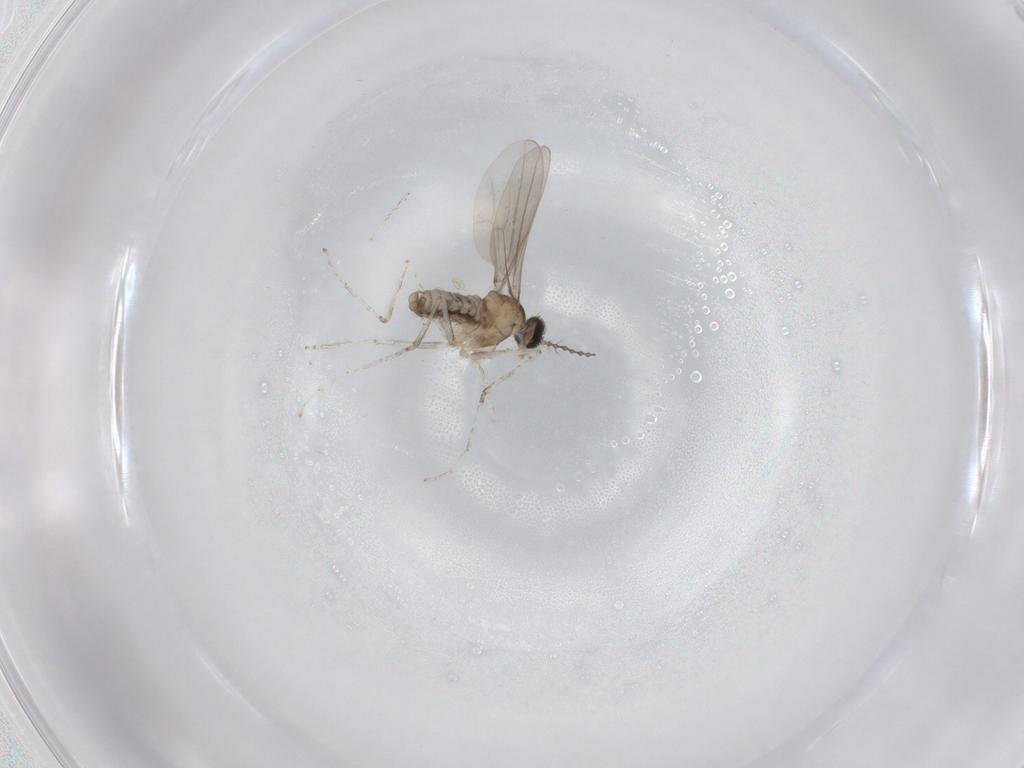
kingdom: Animalia
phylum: Arthropoda
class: Insecta
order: Diptera
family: Cecidomyiidae
